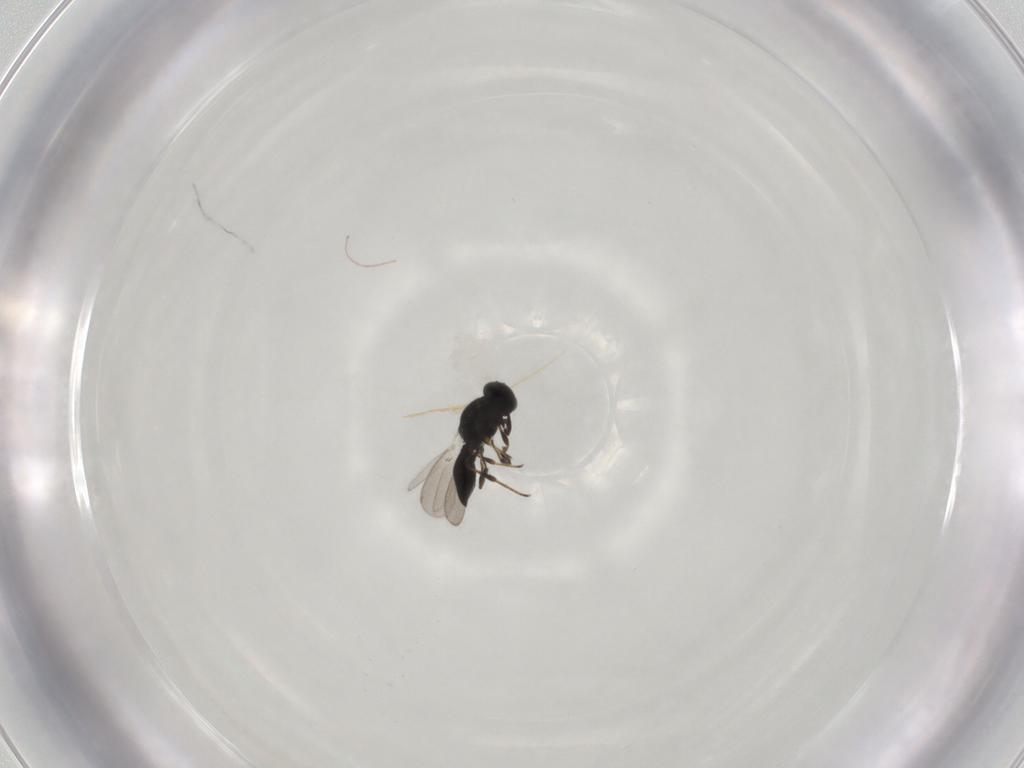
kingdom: Animalia
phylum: Arthropoda
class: Insecta
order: Hymenoptera
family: Platygastridae
